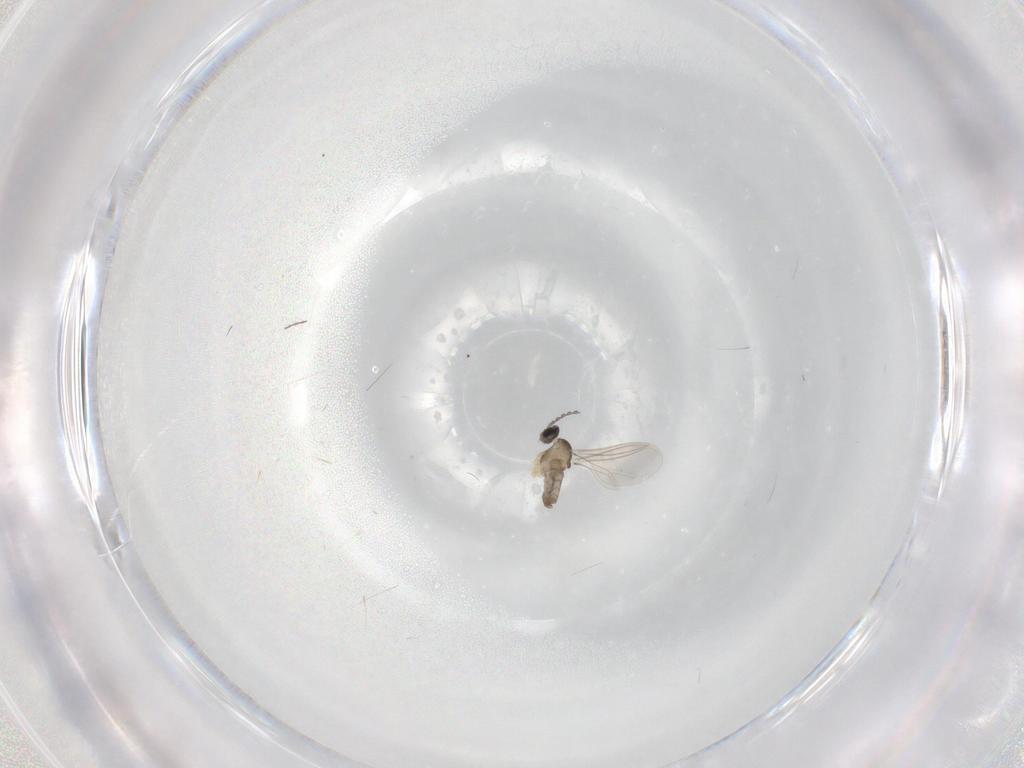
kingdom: Animalia
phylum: Arthropoda
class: Insecta
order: Diptera
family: Cecidomyiidae
